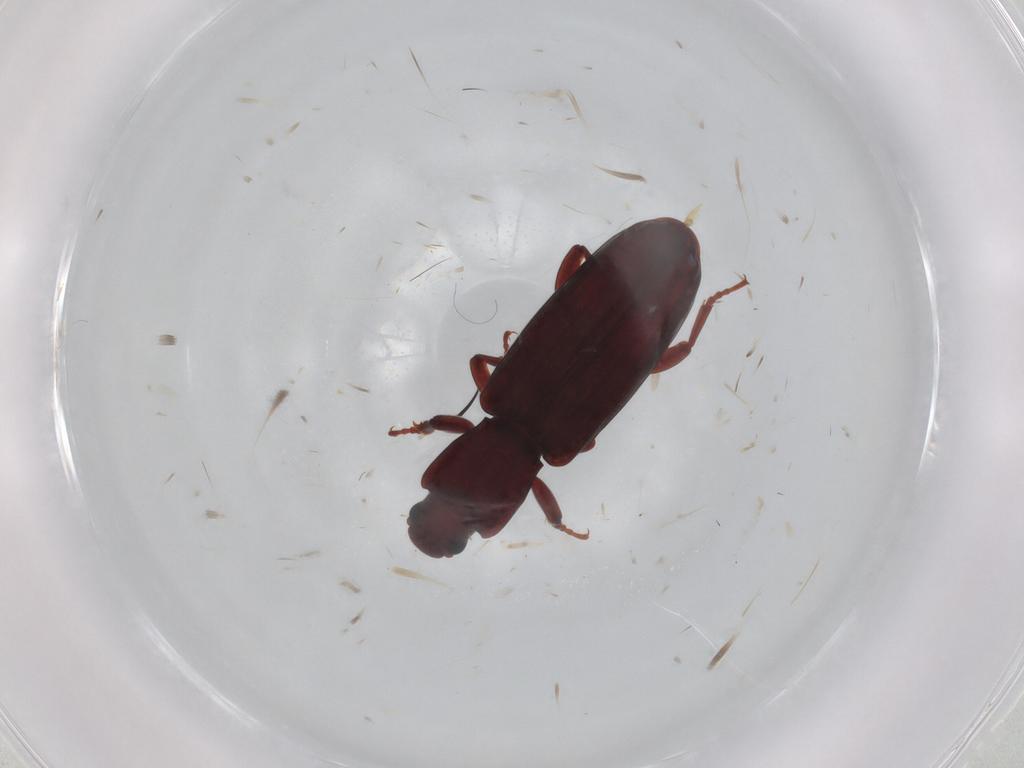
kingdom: Animalia
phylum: Arthropoda
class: Insecta
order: Coleoptera
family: Bothrideridae
